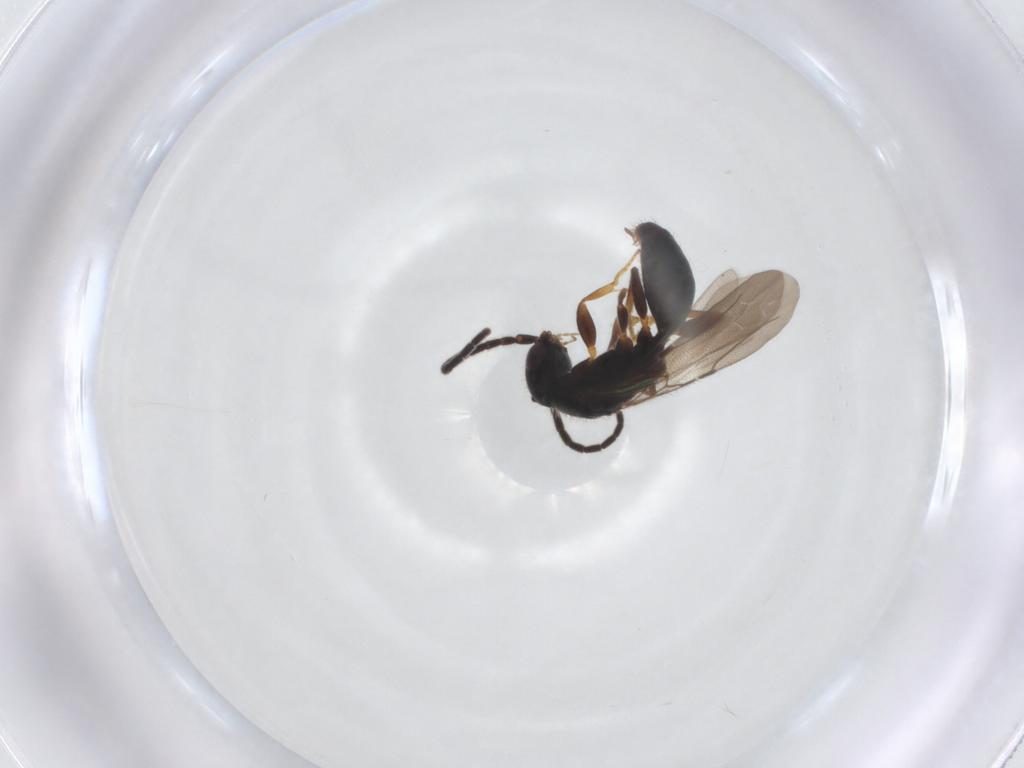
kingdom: Animalia
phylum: Arthropoda
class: Insecta
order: Hymenoptera
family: Bethylidae
